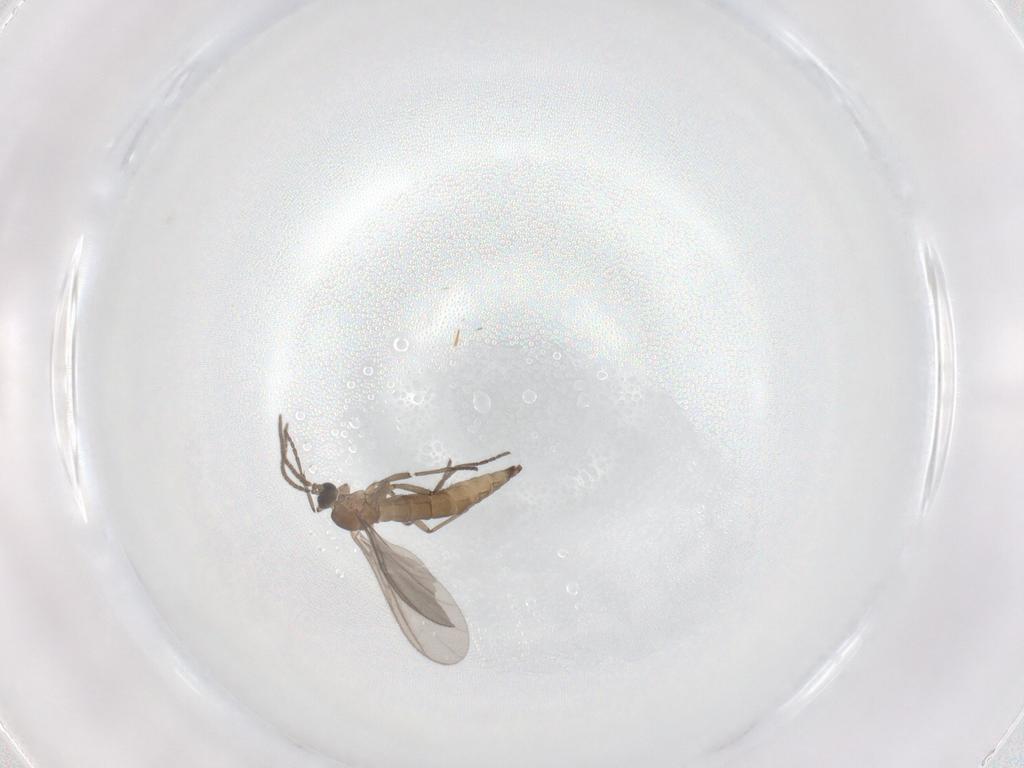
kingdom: Animalia
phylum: Arthropoda
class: Insecta
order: Diptera
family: Sciaridae
